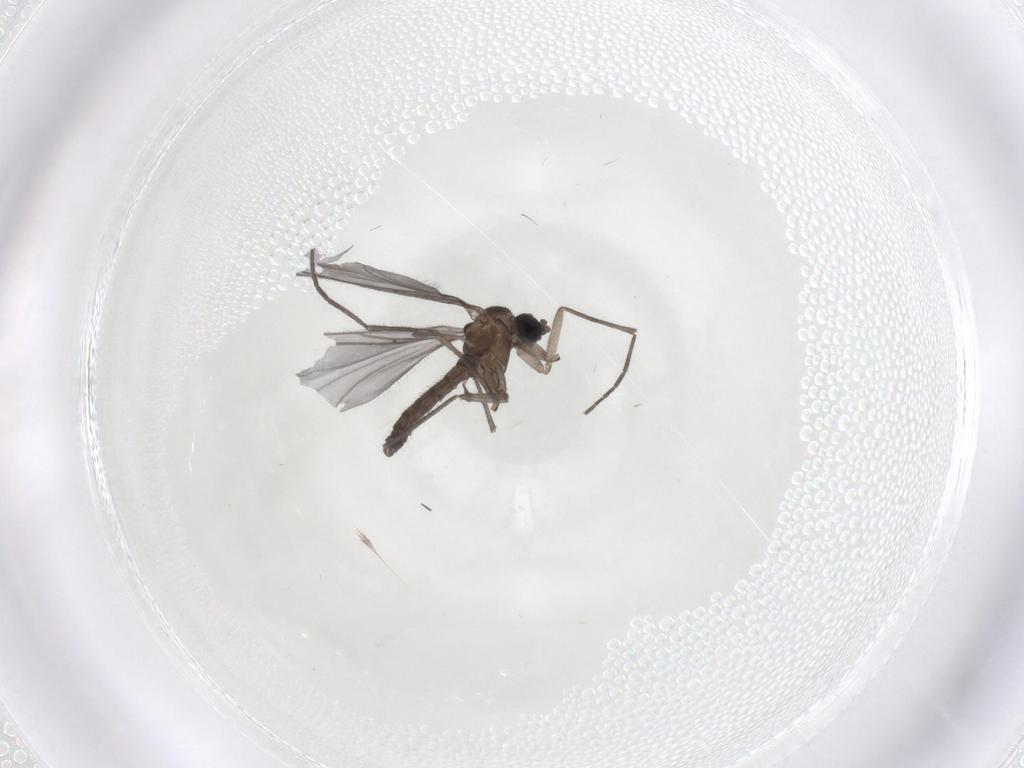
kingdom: Animalia
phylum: Arthropoda
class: Insecta
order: Diptera
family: Sciaridae
